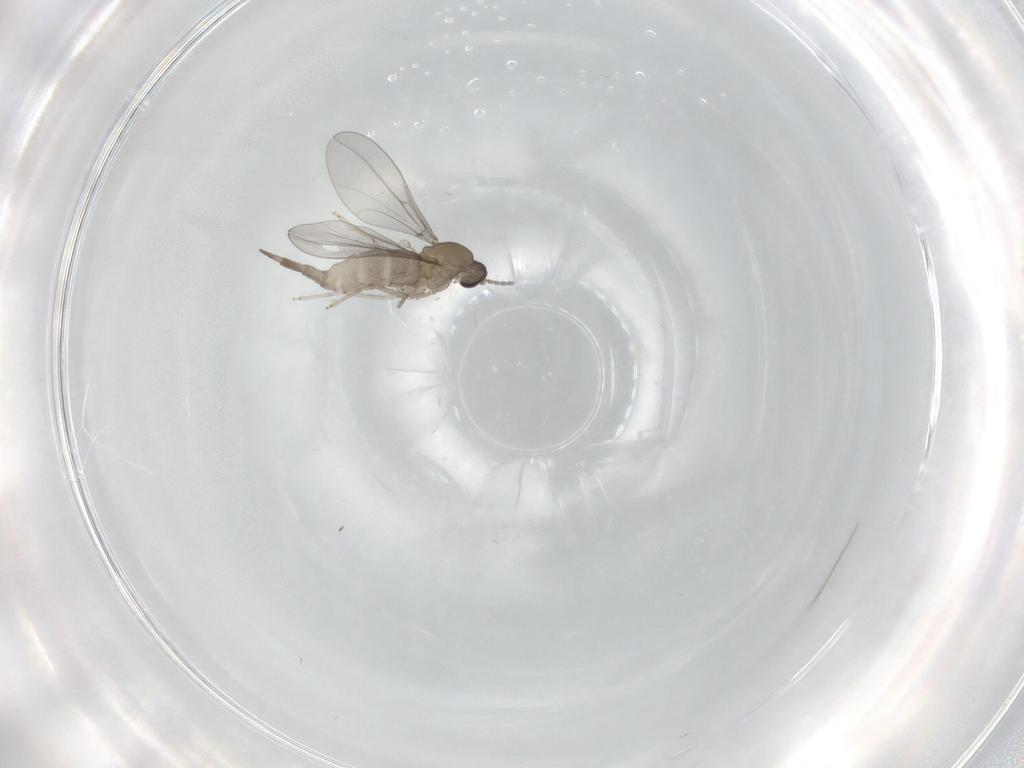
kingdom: Animalia
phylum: Arthropoda
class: Insecta
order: Diptera
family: Cecidomyiidae
